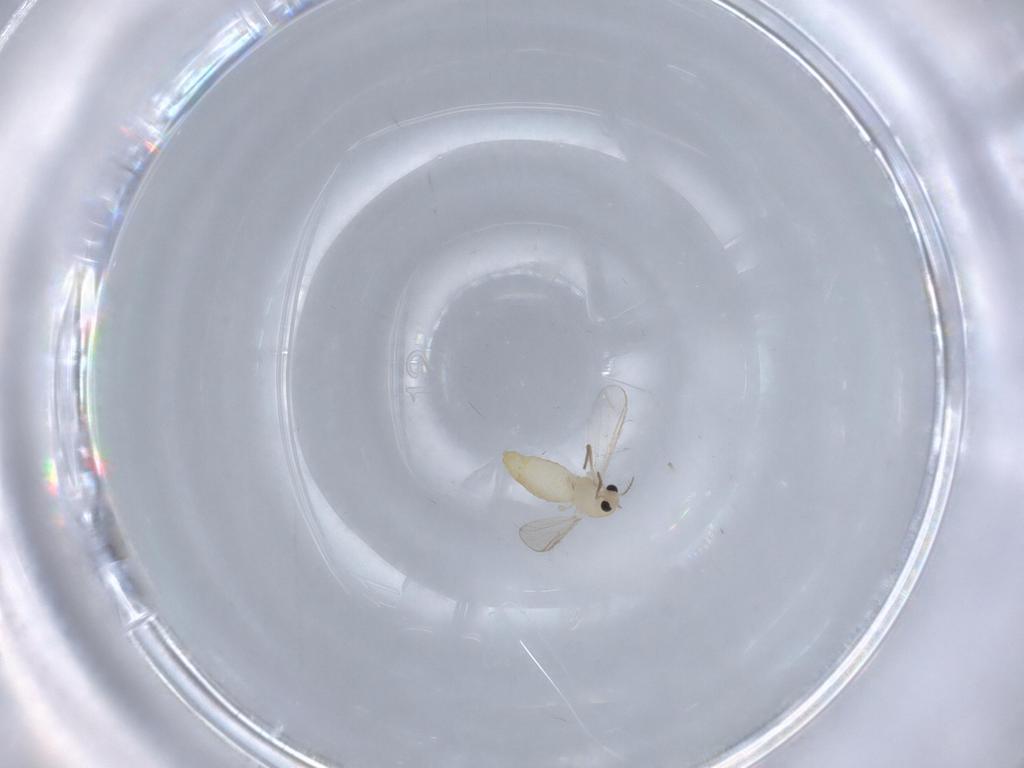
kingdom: Animalia
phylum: Arthropoda
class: Insecta
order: Diptera
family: Chironomidae
